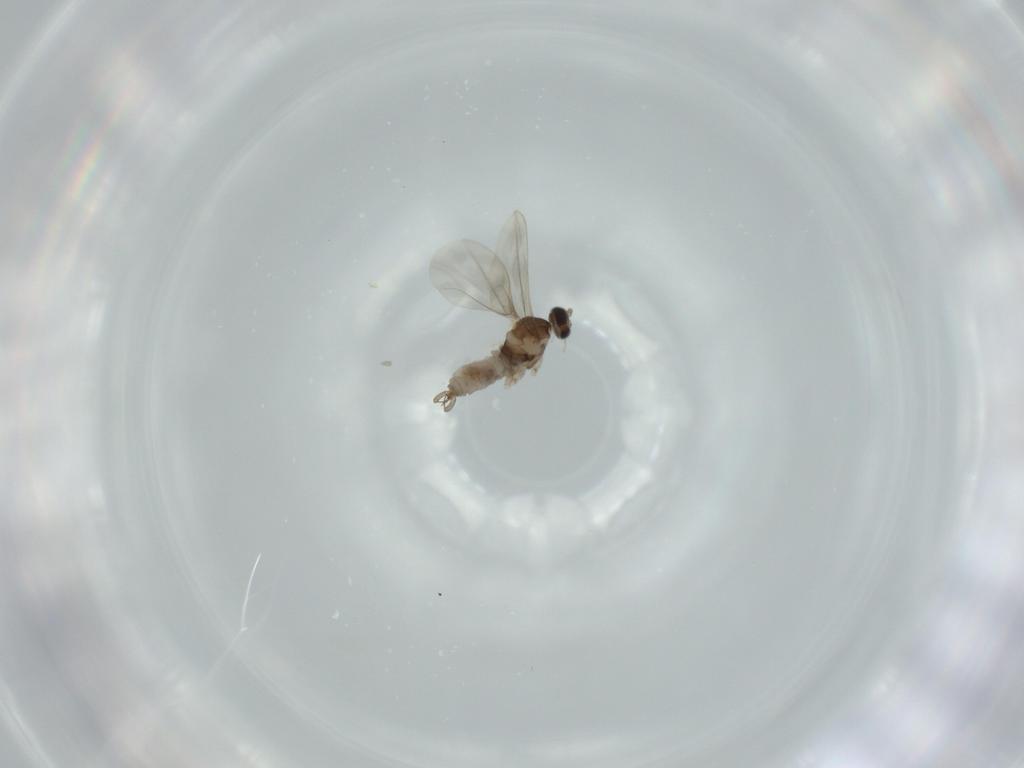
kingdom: Animalia
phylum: Arthropoda
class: Insecta
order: Diptera
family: Cecidomyiidae
